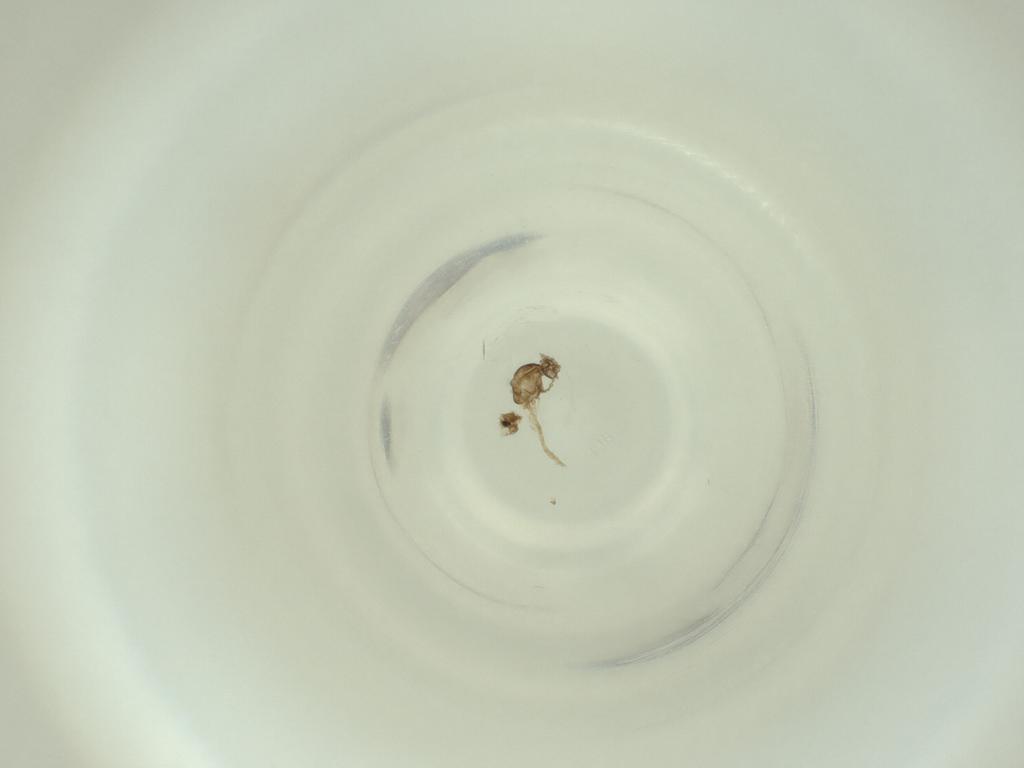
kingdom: Animalia
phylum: Arthropoda
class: Insecta
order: Diptera
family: Cecidomyiidae
